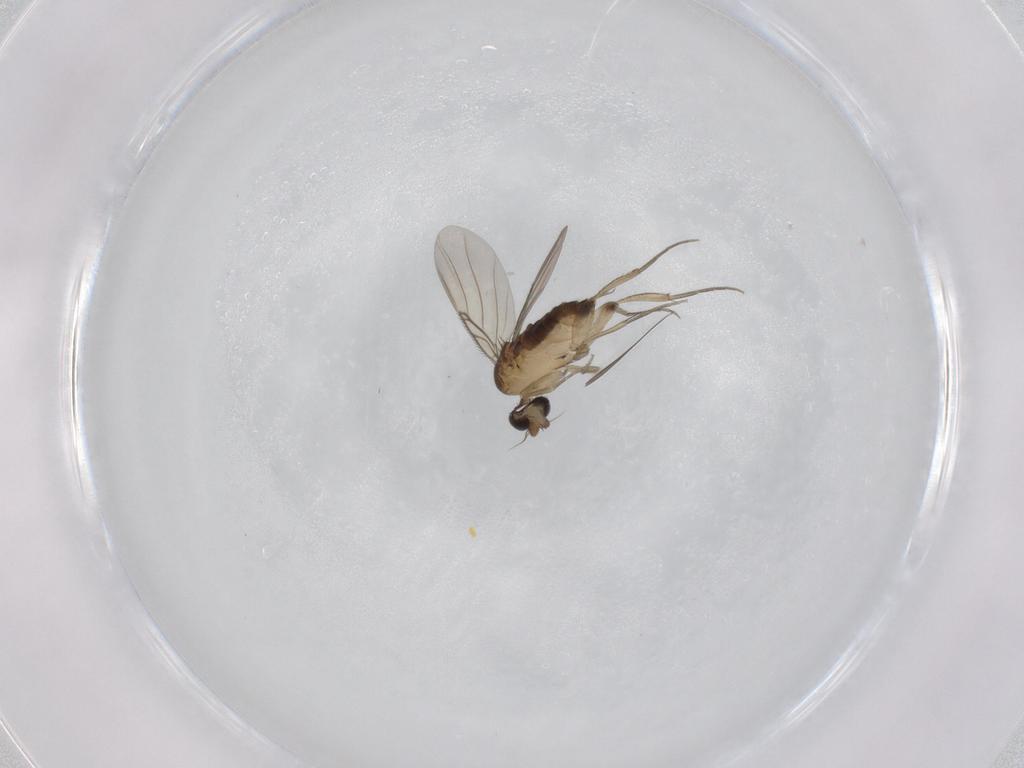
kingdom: Animalia
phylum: Arthropoda
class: Insecta
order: Diptera
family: Phoridae
